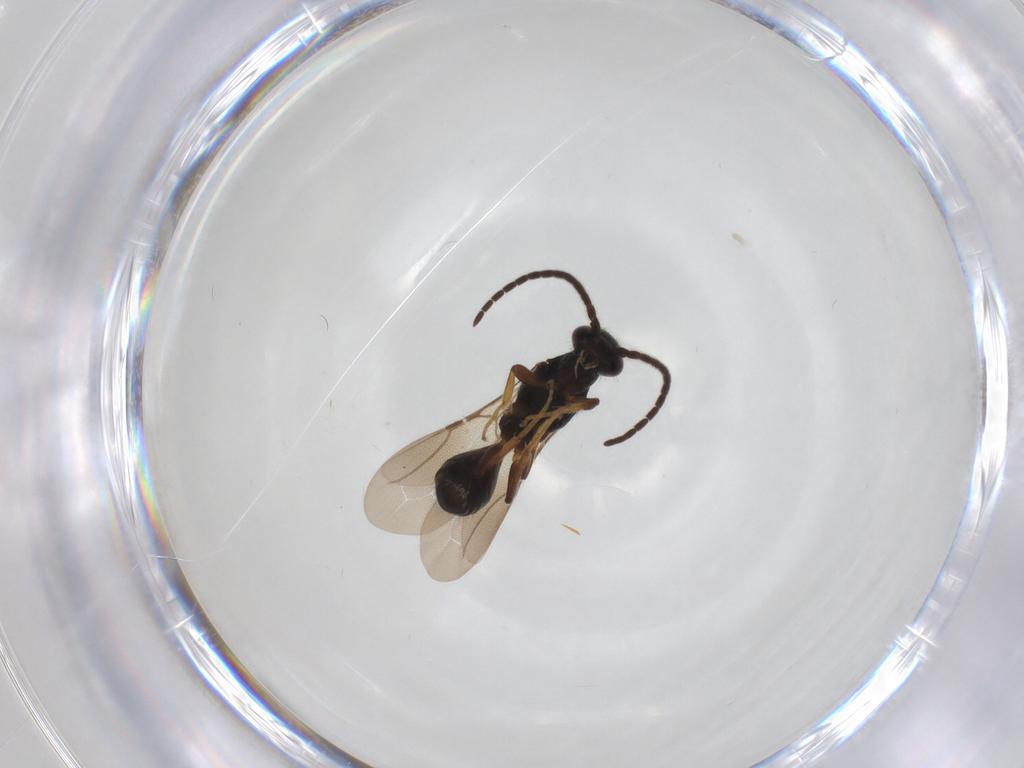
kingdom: Animalia
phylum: Arthropoda
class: Insecta
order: Hymenoptera
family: Bethylidae
